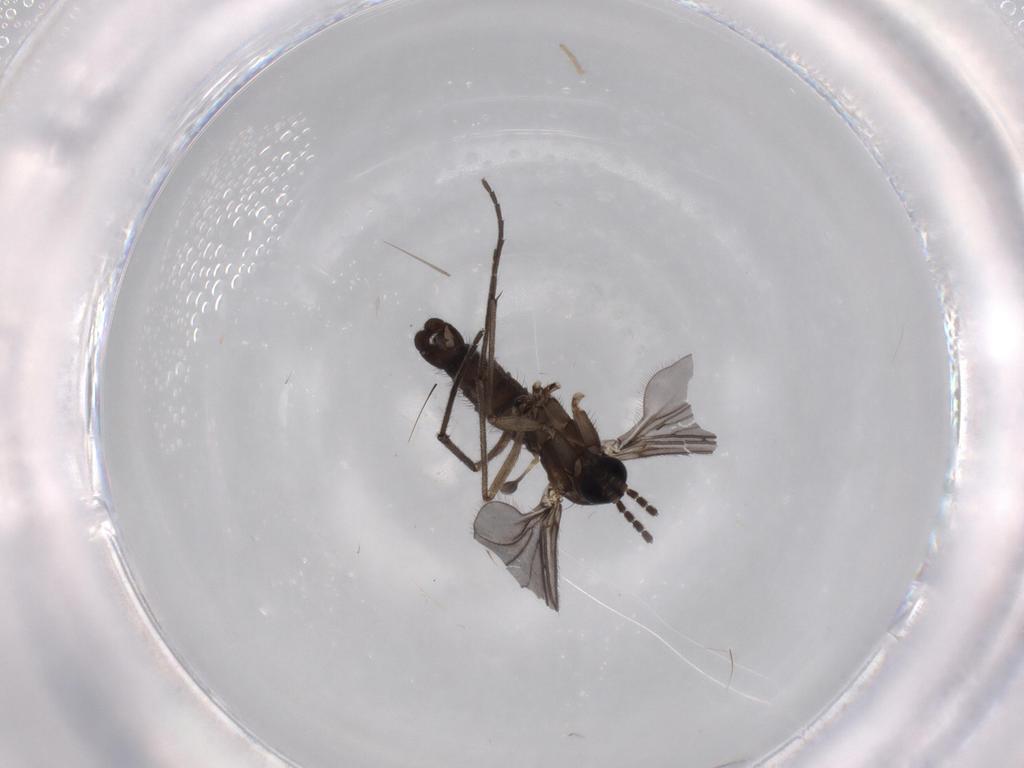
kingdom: Animalia
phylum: Arthropoda
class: Insecta
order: Diptera
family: Sciaridae
